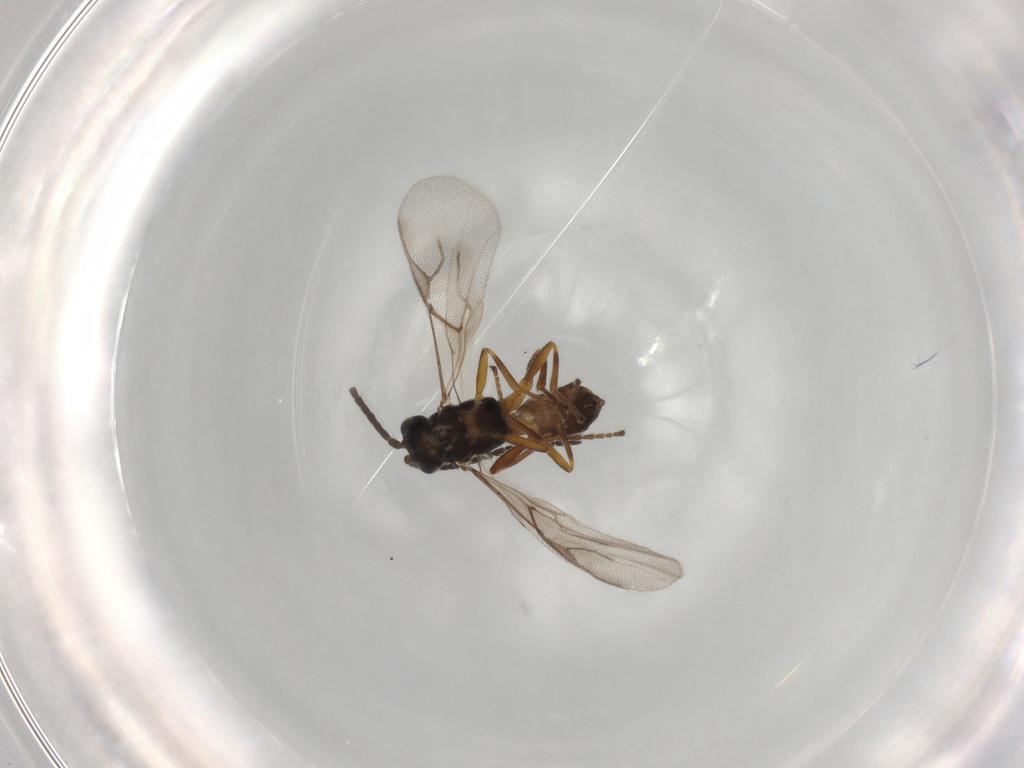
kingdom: Animalia
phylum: Arthropoda
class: Insecta
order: Hymenoptera
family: Braconidae
